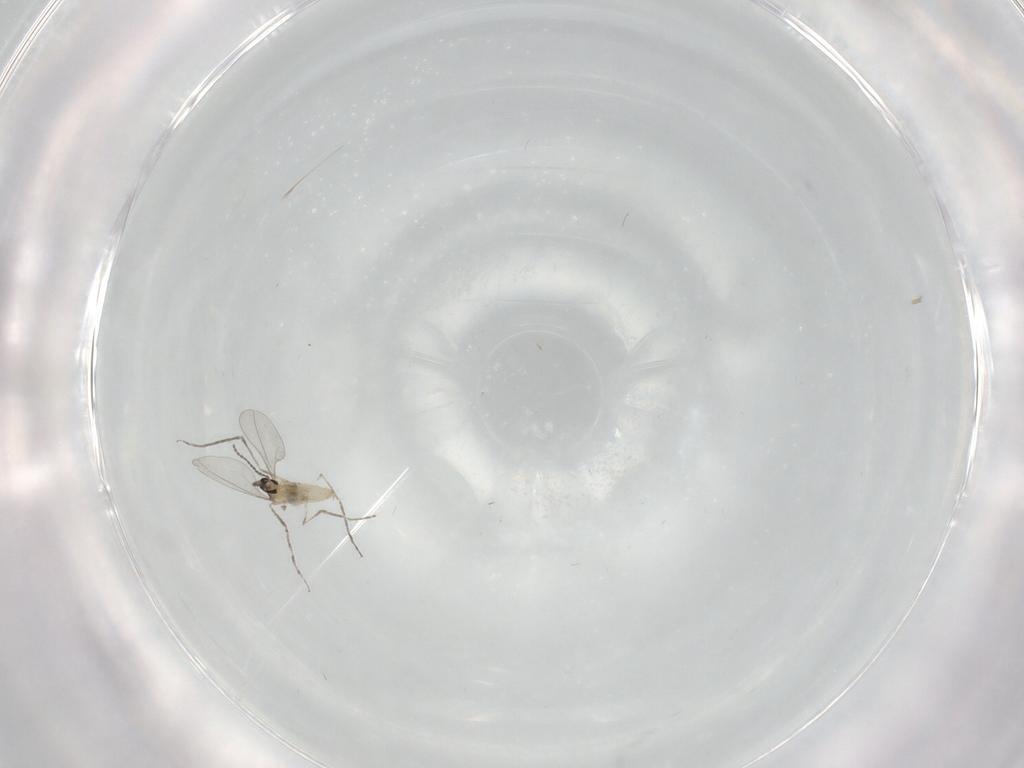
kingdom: Animalia
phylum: Arthropoda
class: Insecta
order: Diptera
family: Cecidomyiidae
